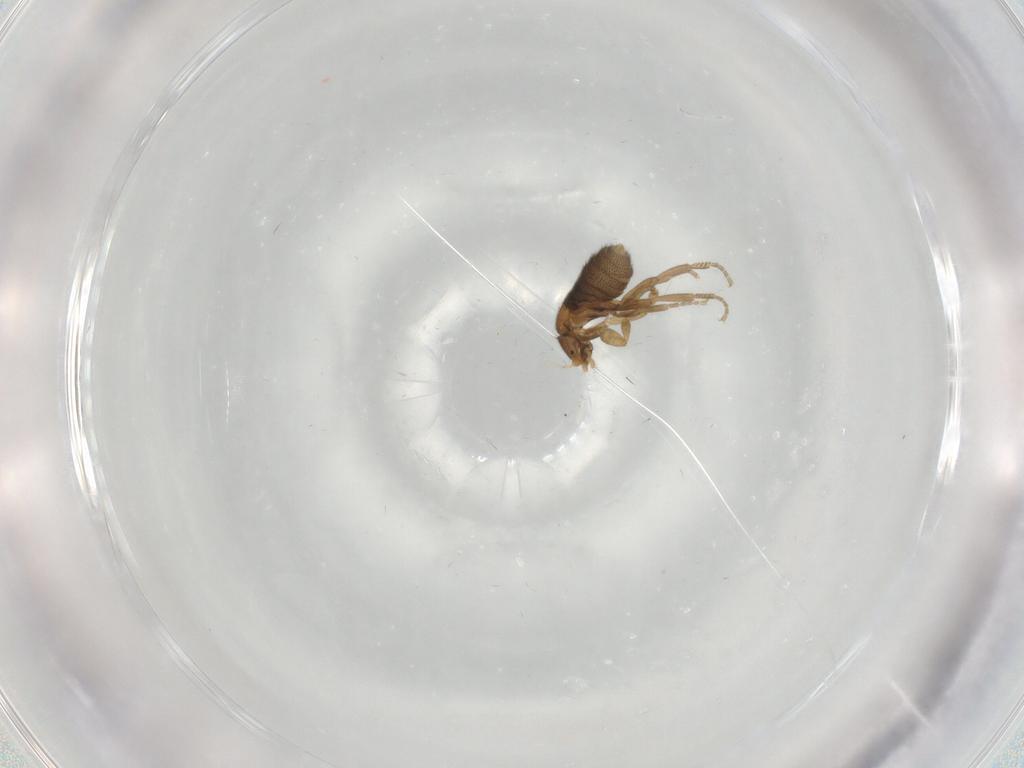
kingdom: Animalia
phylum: Arthropoda
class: Insecta
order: Diptera
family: Phoridae
